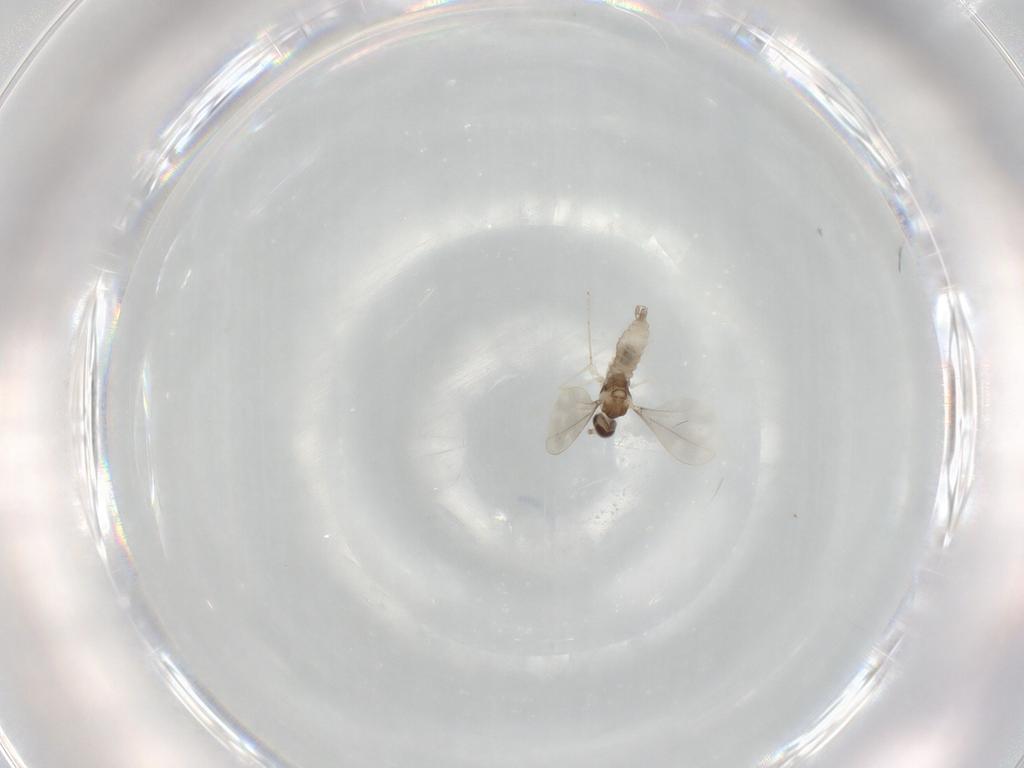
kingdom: Animalia
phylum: Arthropoda
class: Insecta
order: Diptera
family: Cecidomyiidae
